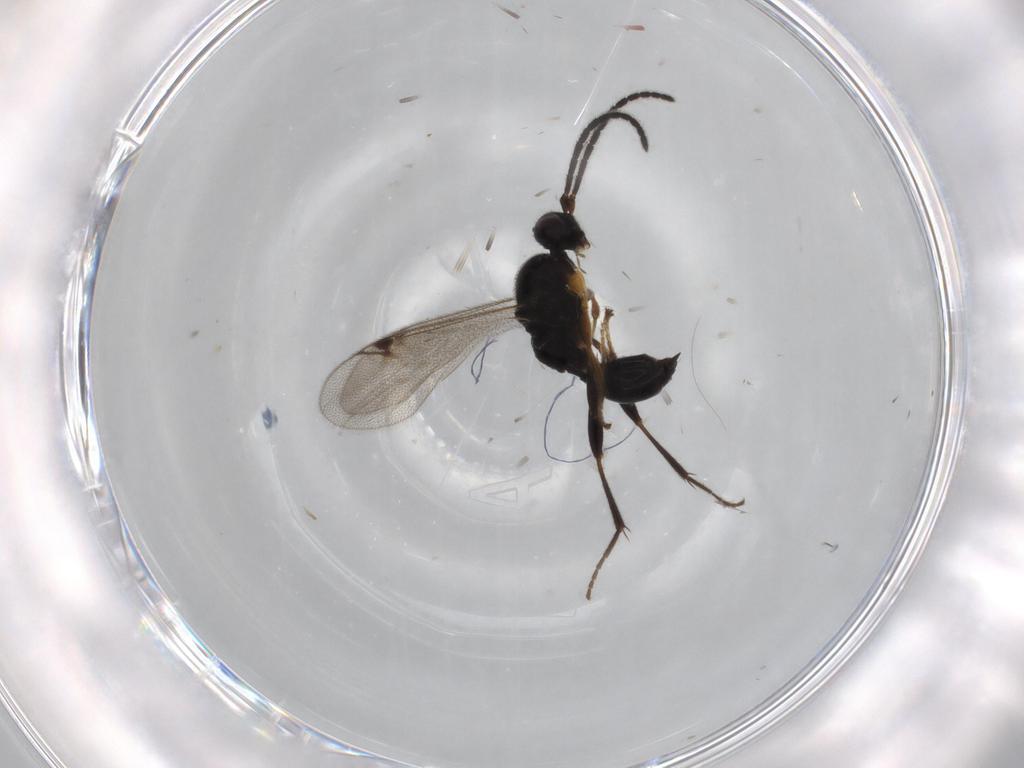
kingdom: Animalia
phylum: Arthropoda
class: Insecta
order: Hymenoptera
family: Proctotrupidae
